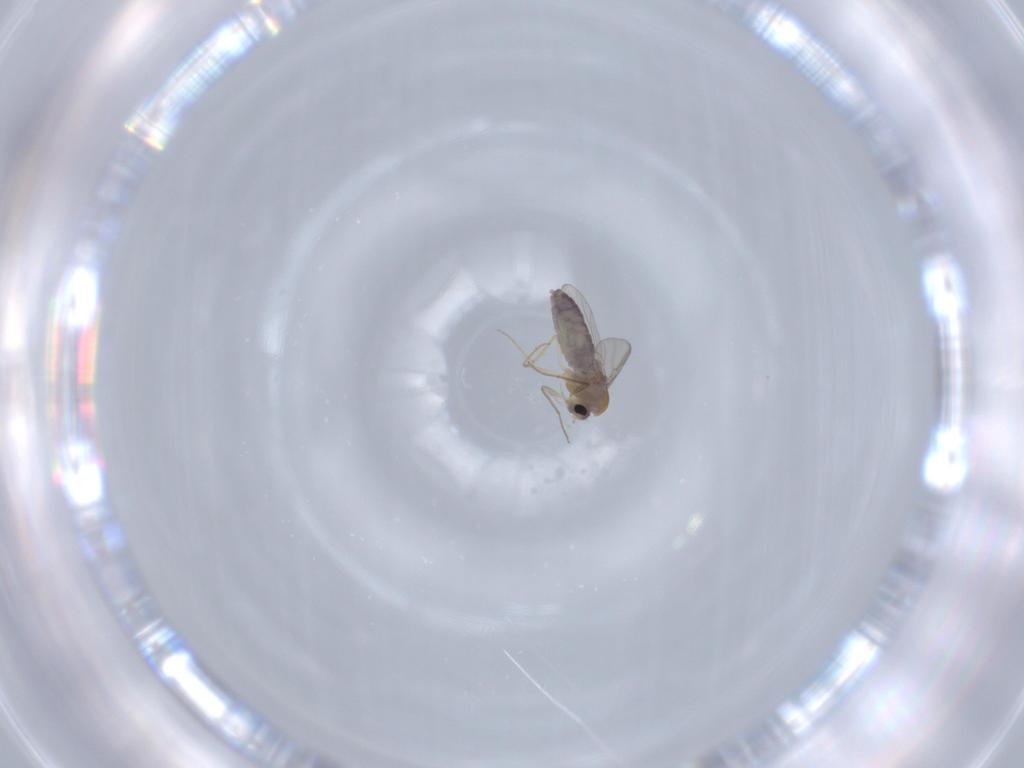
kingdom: Animalia
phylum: Arthropoda
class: Insecta
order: Diptera
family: Chironomidae
